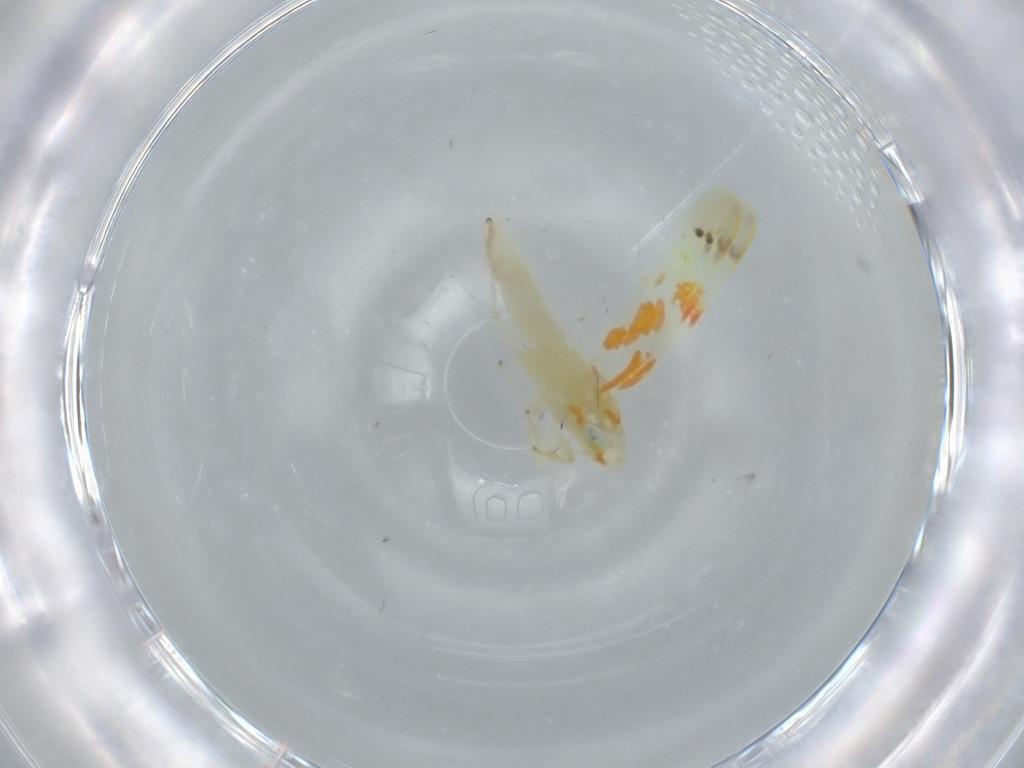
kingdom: Animalia
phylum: Arthropoda
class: Insecta
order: Hemiptera
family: Cicadellidae
